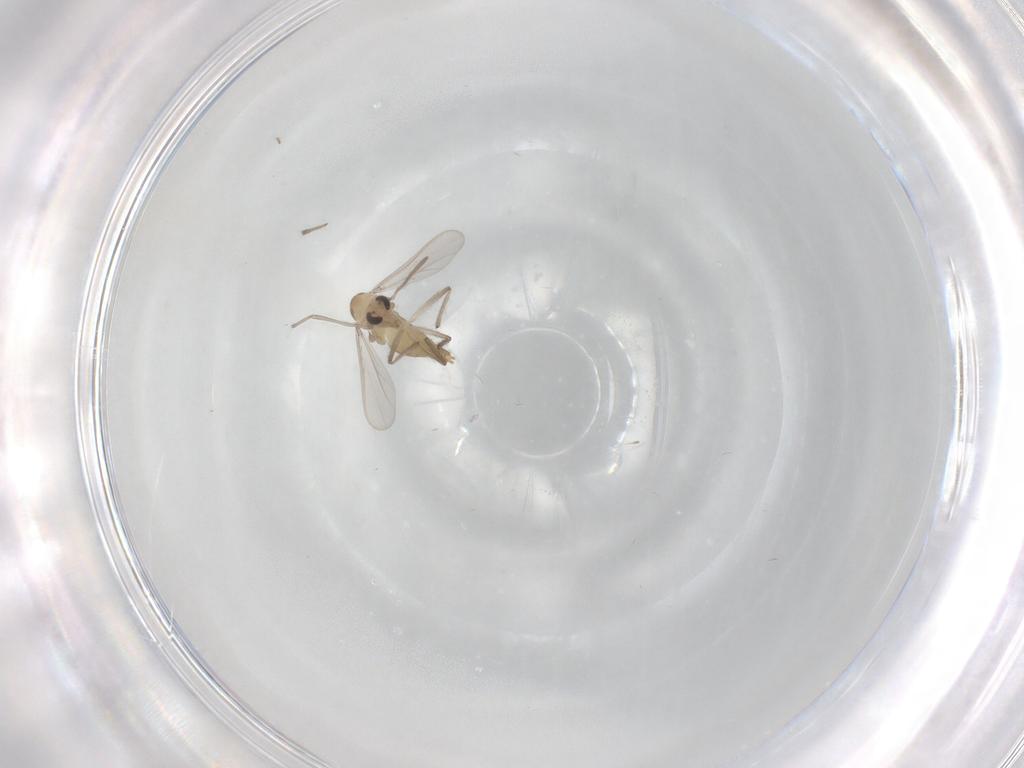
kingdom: Animalia
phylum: Arthropoda
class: Insecta
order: Diptera
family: Chironomidae
